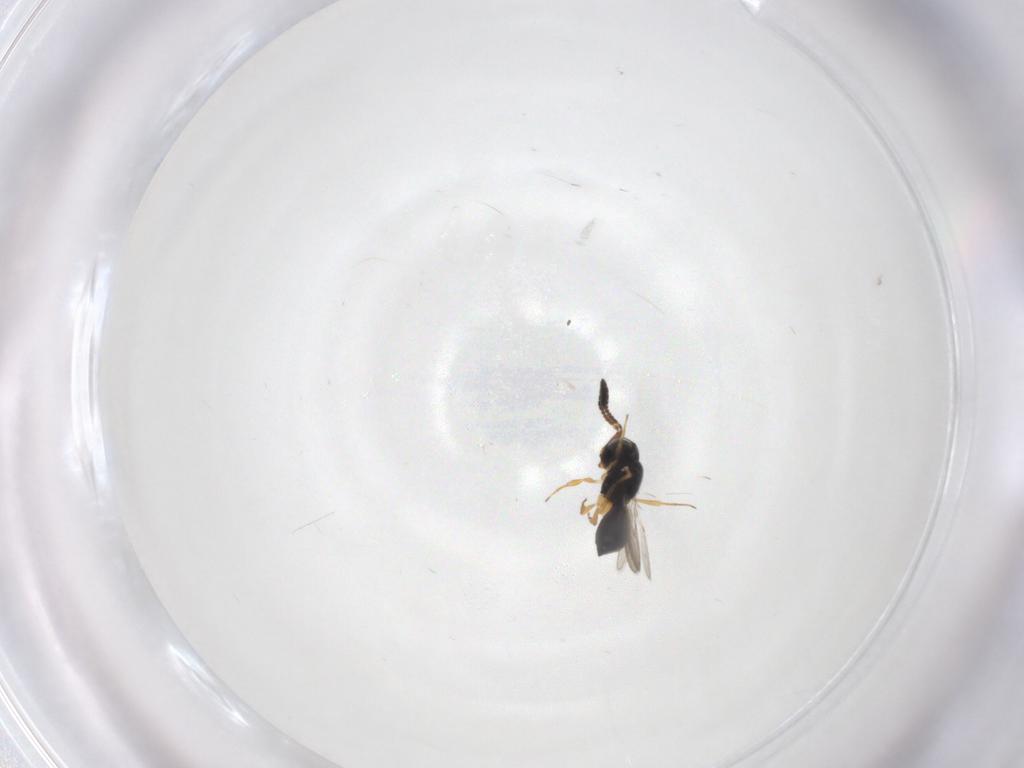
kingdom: Animalia
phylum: Arthropoda
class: Insecta
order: Hymenoptera
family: Scelionidae
